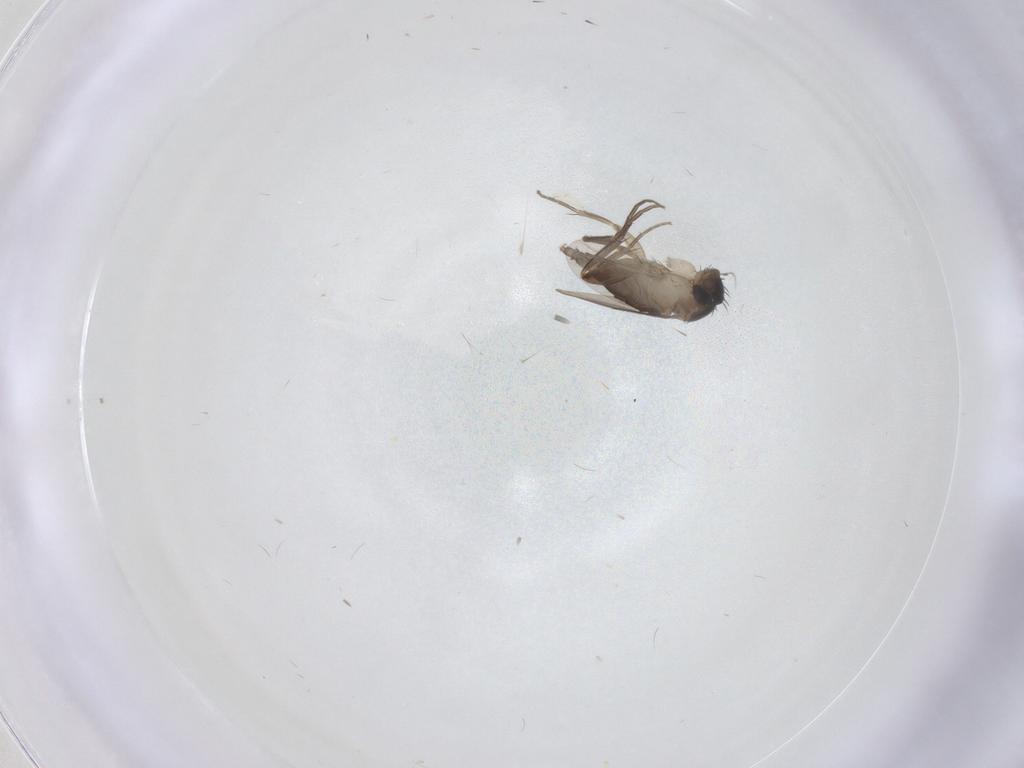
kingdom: Animalia
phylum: Arthropoda
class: Insecta
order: Diptera
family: Phoridae
